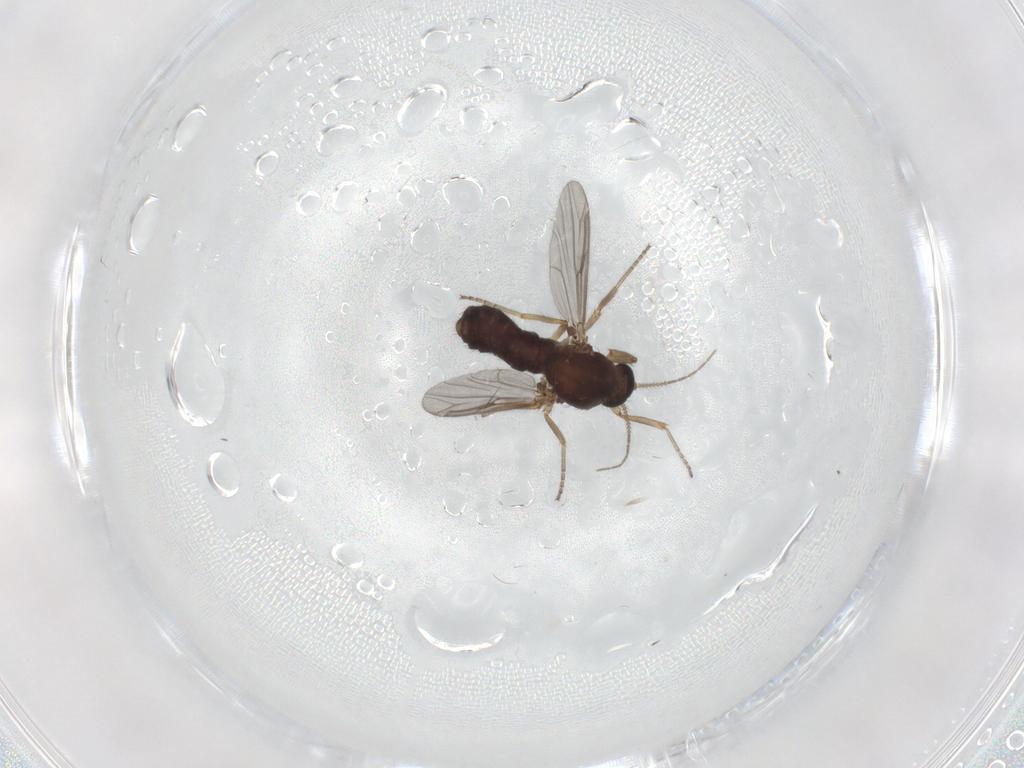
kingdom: Animalia
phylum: Arthropoda
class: Insecta
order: Diptera
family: Ceratopogonidae
